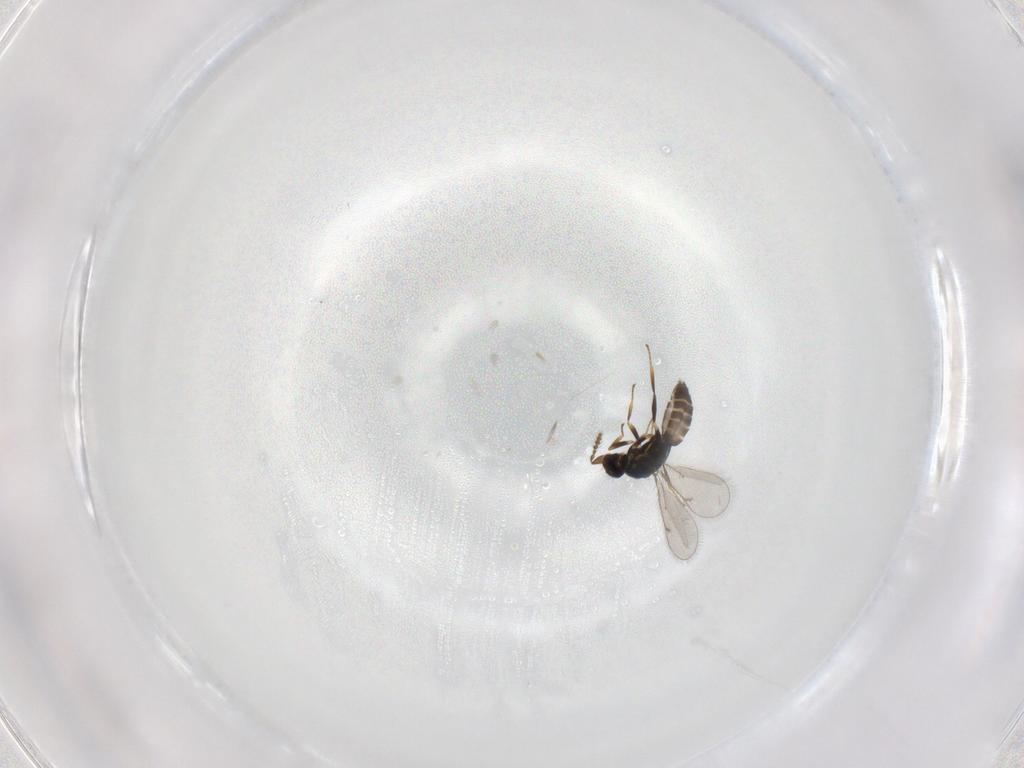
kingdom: Animalia
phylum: Arthropoda
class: Insecta
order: Hymenoptera
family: Eulophidae
